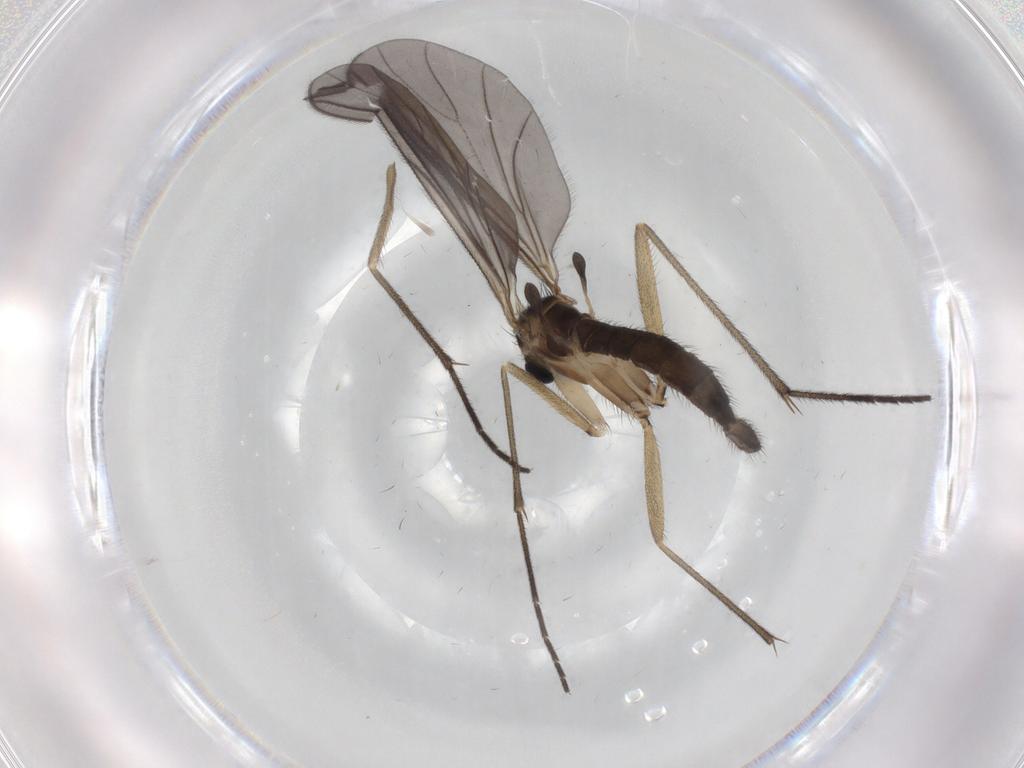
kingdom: Animalia
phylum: Arthropoda
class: Insecta
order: Diptera
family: Sciaridae
